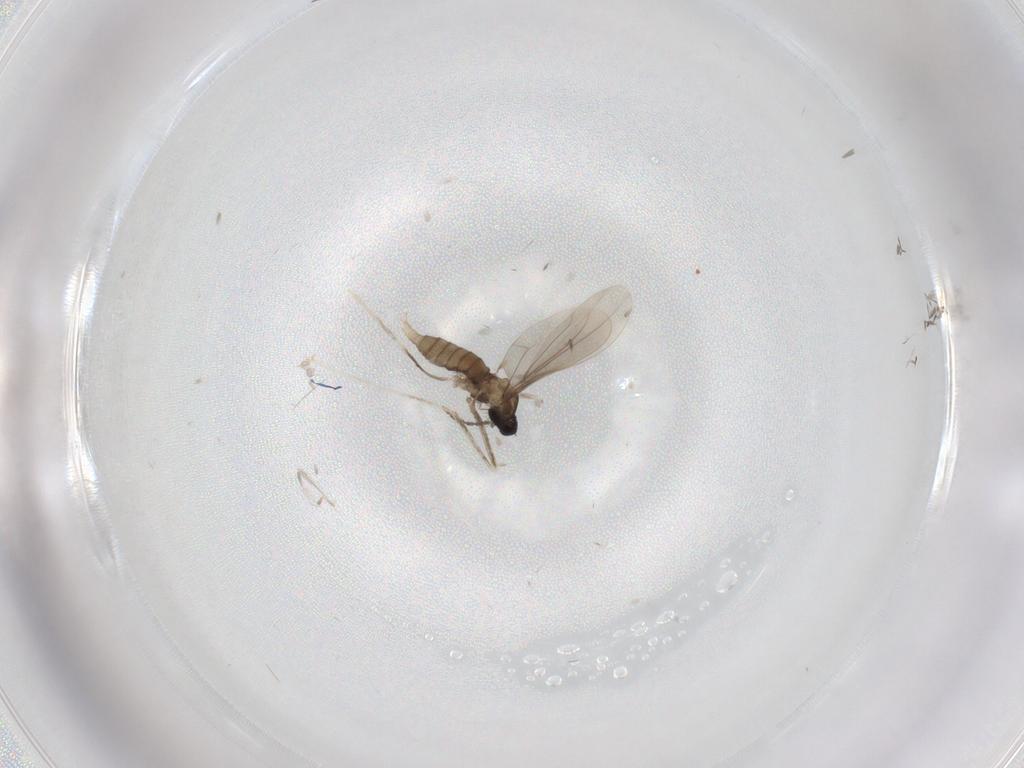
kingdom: Animalia
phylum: Arthropoda
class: Insecta
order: Diptera
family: Cecidomyiidae
